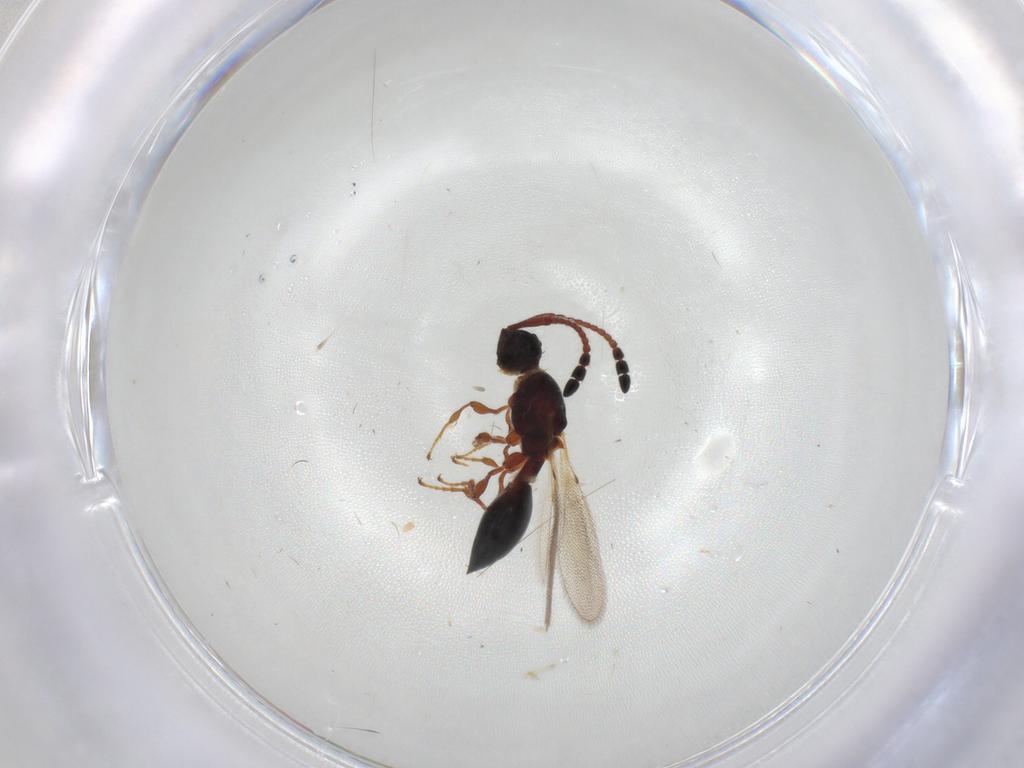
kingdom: Animalia
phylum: Arthropoda
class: Insecta
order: Hymenoptera
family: Diapriidae
